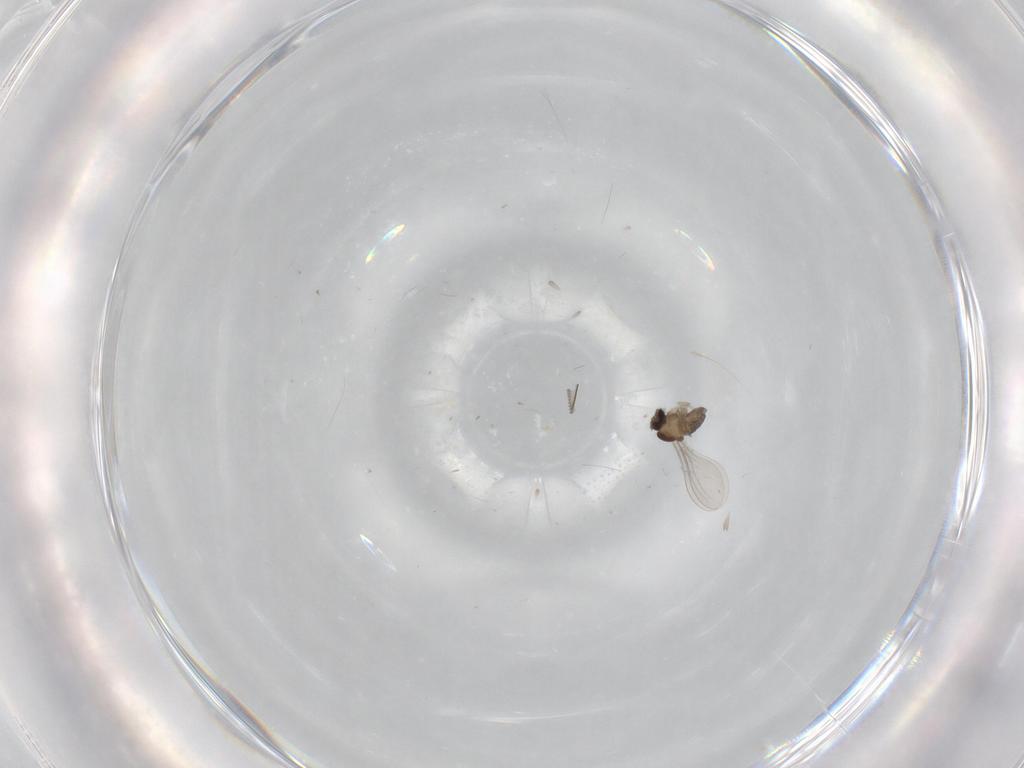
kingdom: Animalia
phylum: Arthropoda
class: Insecta
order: Diptera
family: Cecidomyiidae
